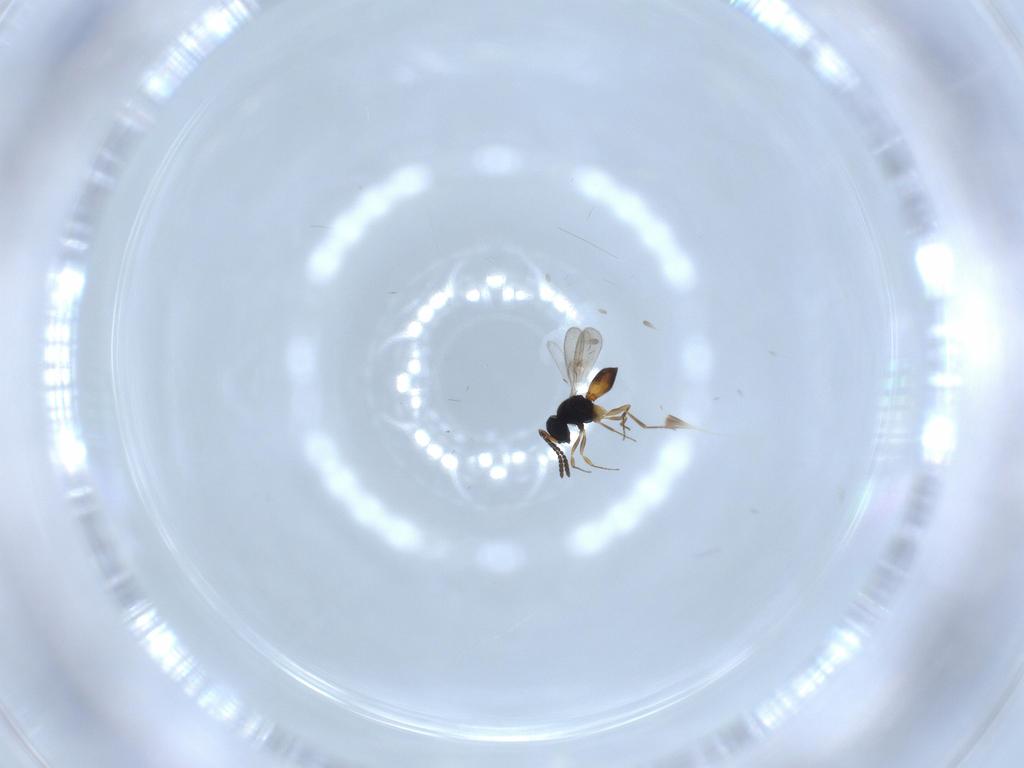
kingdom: Animalia
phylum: Arthropoda
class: Insecta
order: Hymenoptera
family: Scelionidae
